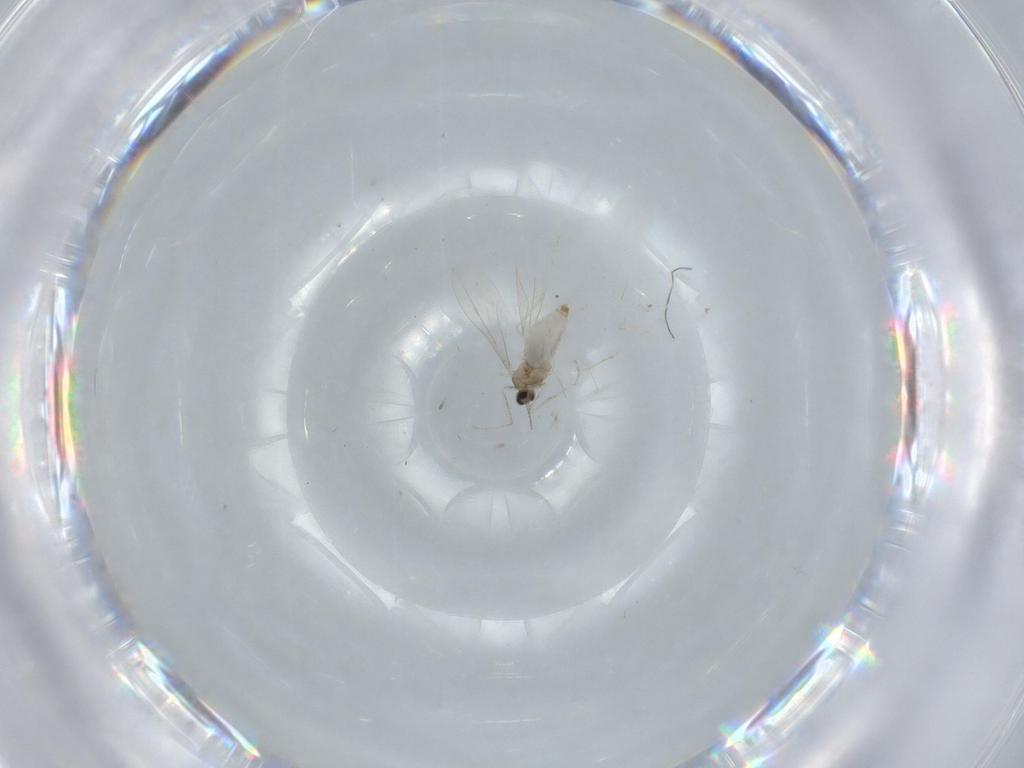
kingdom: Animalia
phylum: Arthropoda
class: Insecta
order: Diptera
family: Cecidomyiidae
